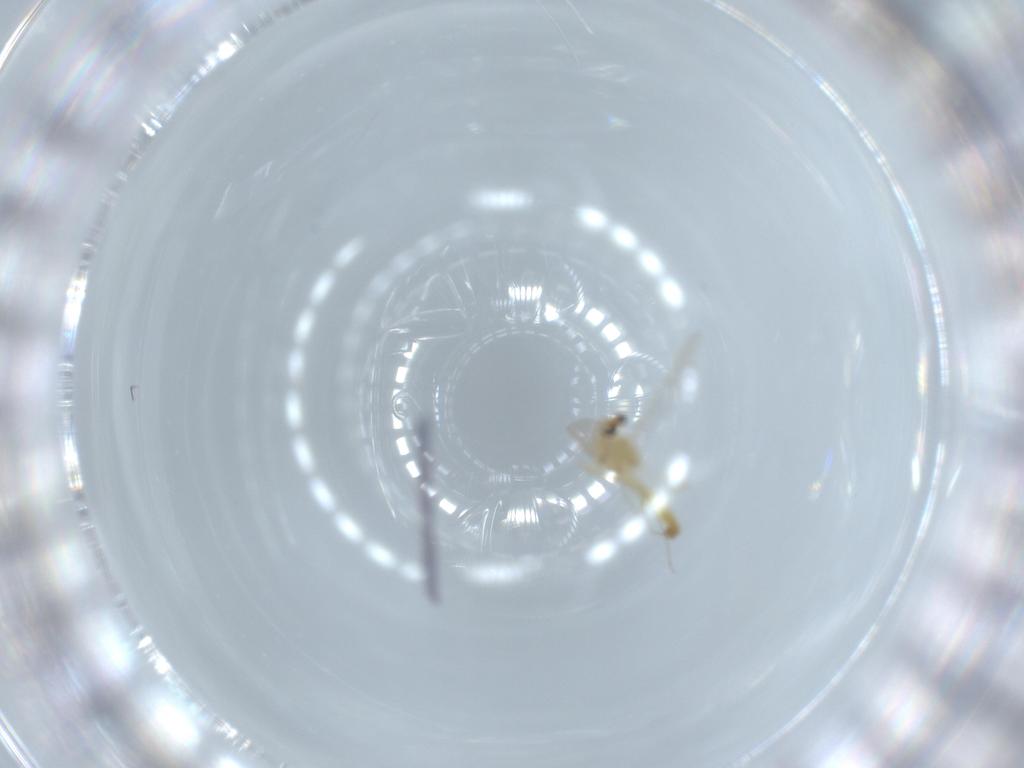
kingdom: Animalia
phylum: Arthropoda
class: Insecta
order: Diptera
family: Chironomidae
